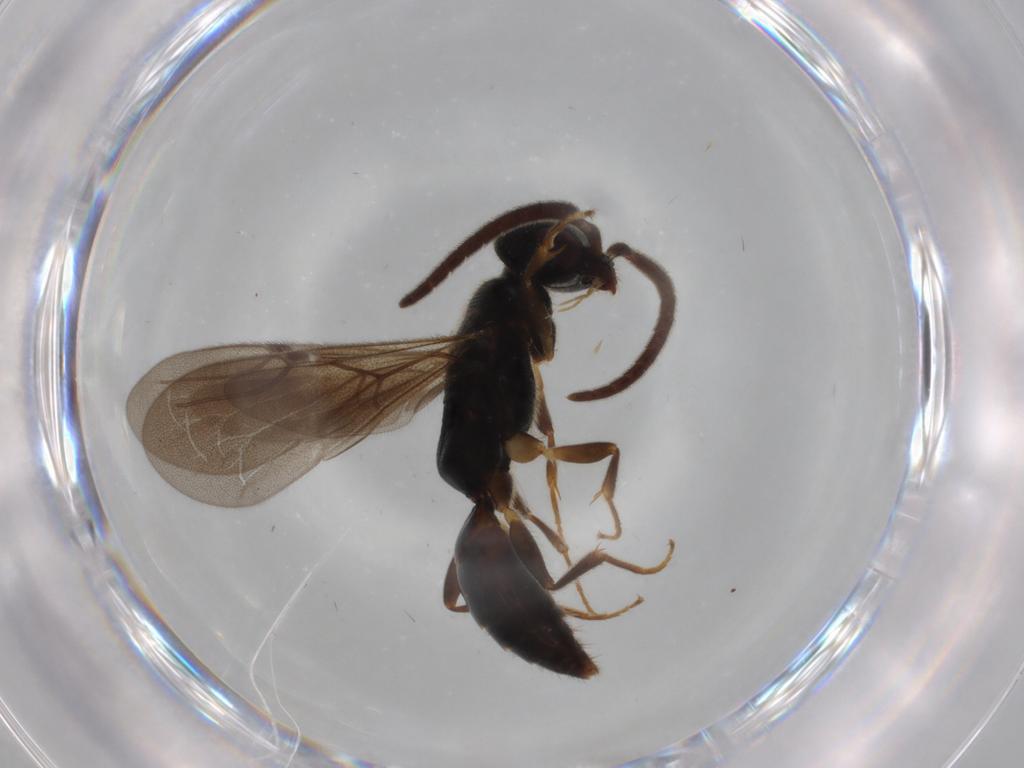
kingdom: Animalia
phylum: Arthropoda
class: Insecta
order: Hymenoptera
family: Bethylidae
